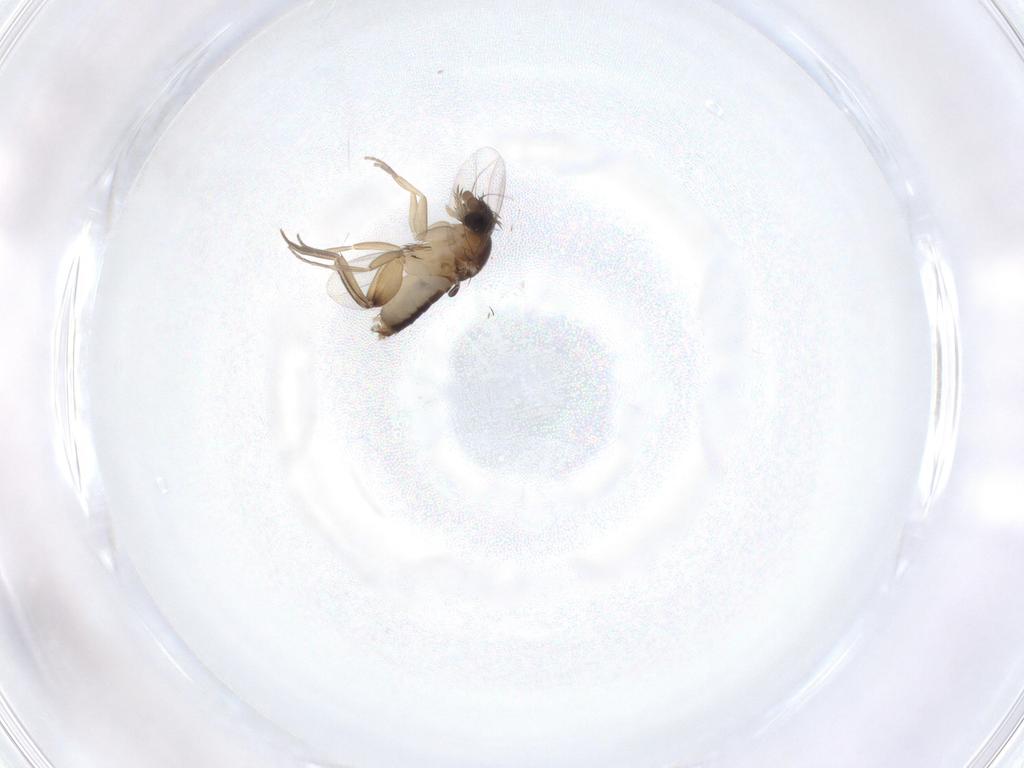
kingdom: Animalia
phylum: Arthropoda
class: Insecta
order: Diptera
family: Phoridae
